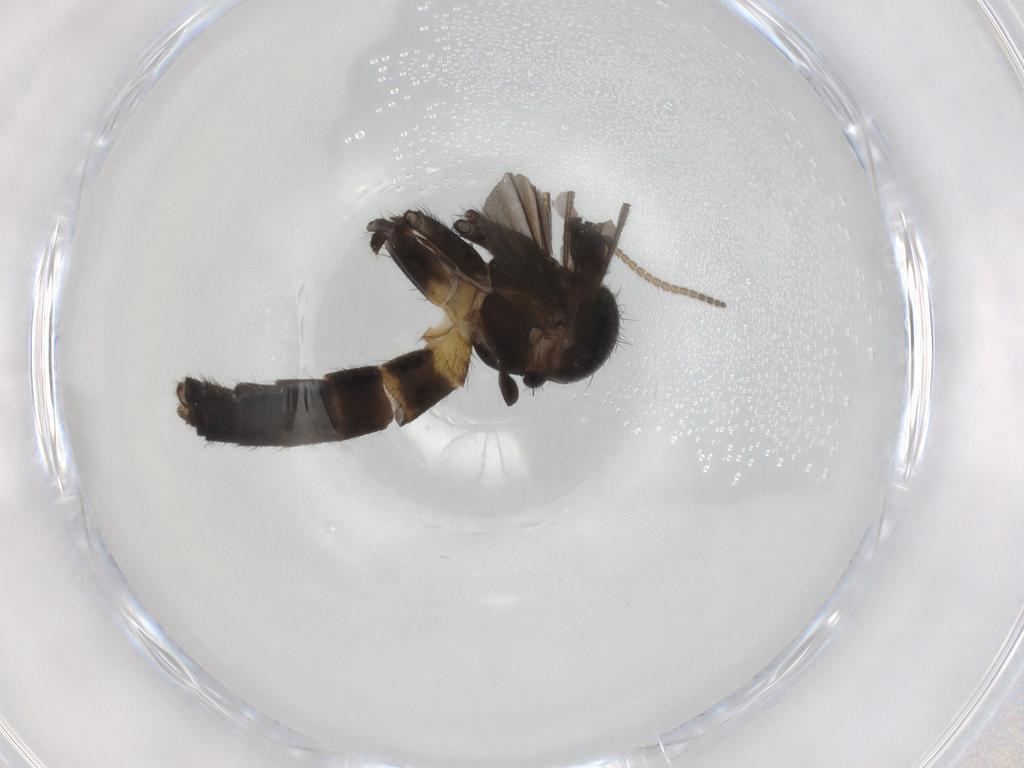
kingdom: Animalia
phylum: Arthropoda
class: Insecta
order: Diptera
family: Mycetophilidae
